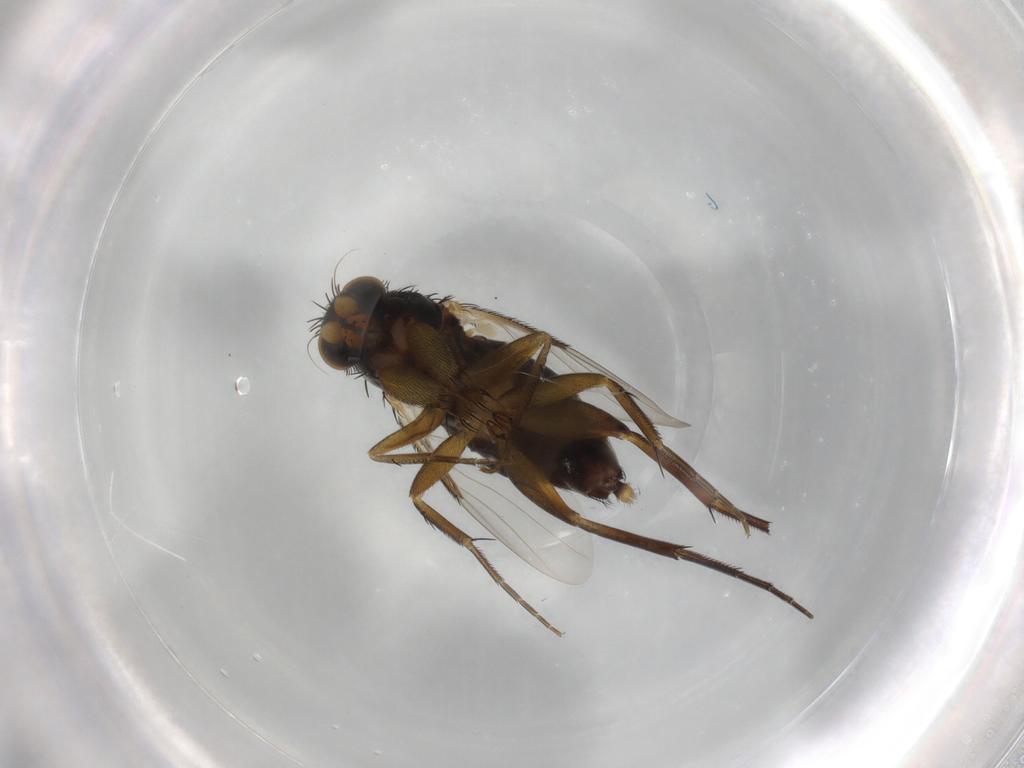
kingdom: Animalia
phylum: Arthropoda
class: Insecta
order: Diptera
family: Phoridae
